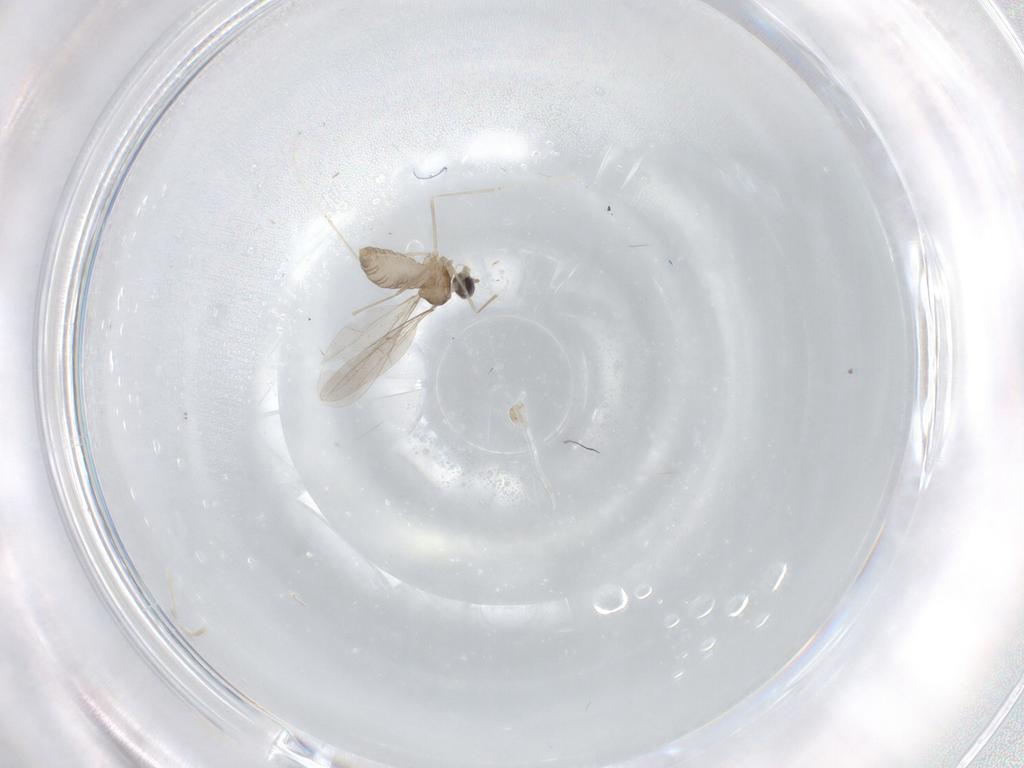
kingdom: Animalia
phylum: Arthropoda
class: Insecta
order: Diptera
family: Cecidomyiidae
